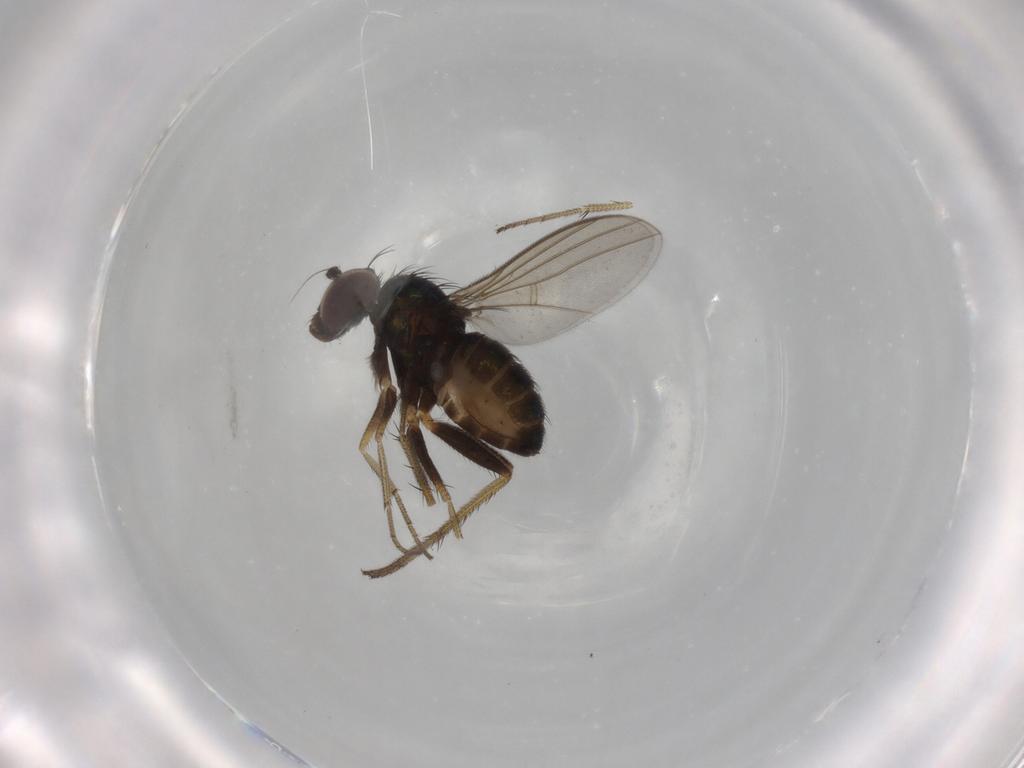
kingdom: Animalia
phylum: Arthropoda
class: Insecta
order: Diptera
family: Dolichopodidae
